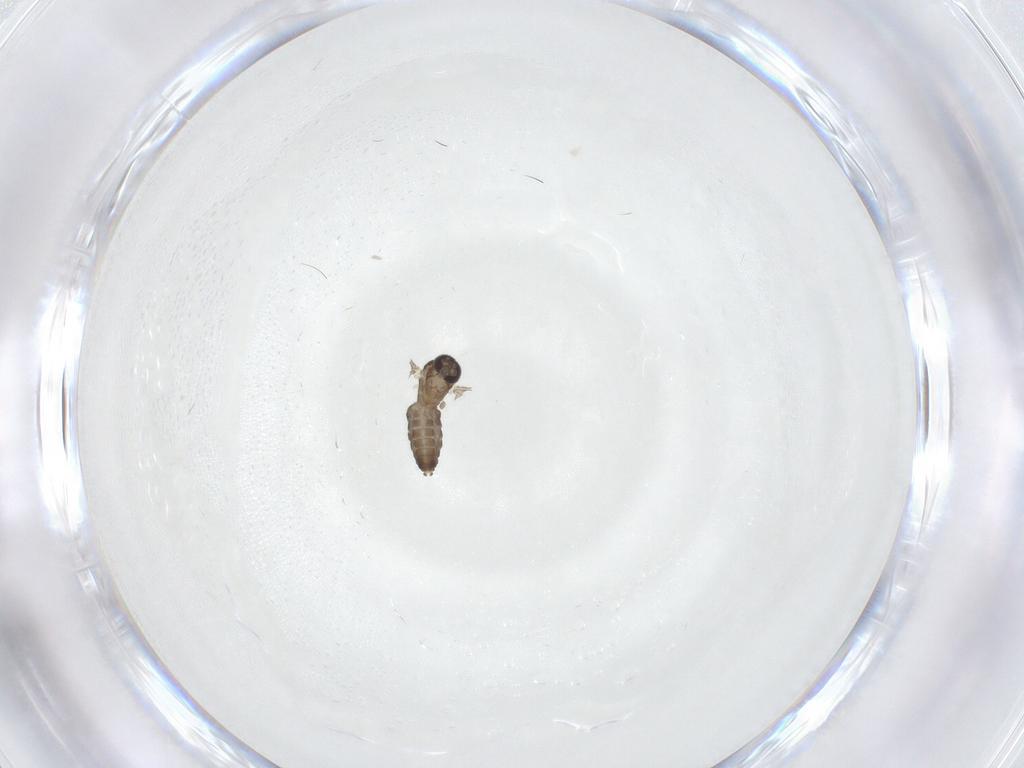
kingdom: Animalia
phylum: Arthropoda
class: Insecta
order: Diptera
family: Ceratopogonidae
